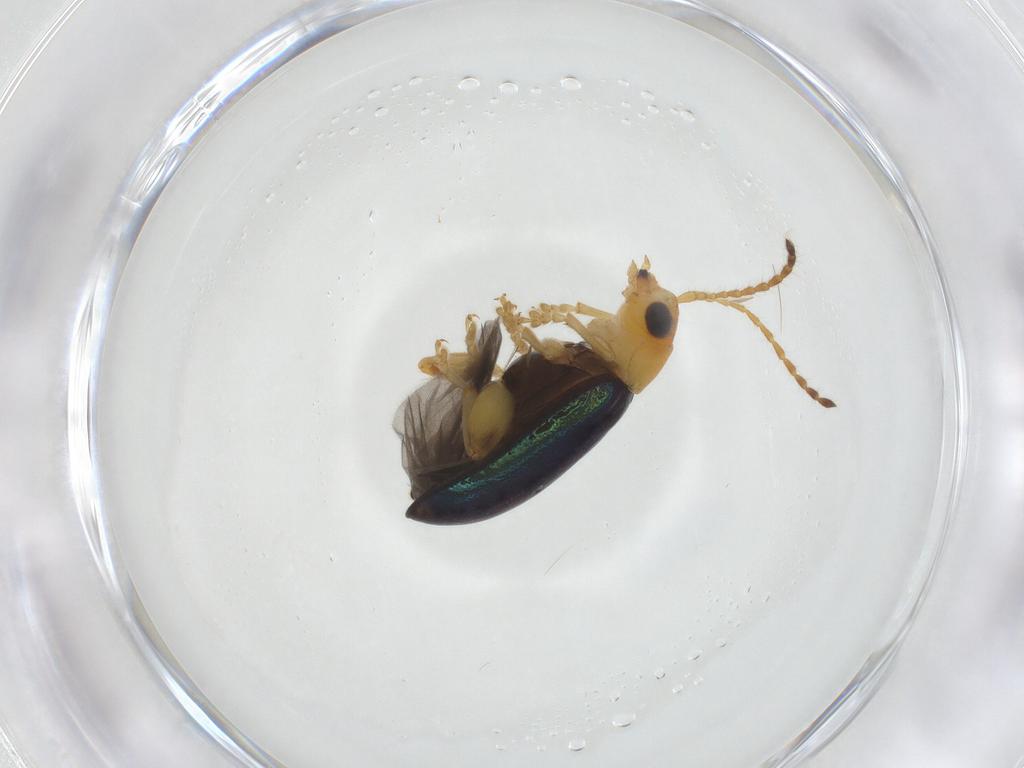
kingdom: Animalia
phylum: Arthropoda
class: Insecta
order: Coleoptera
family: Chrysomelidae
